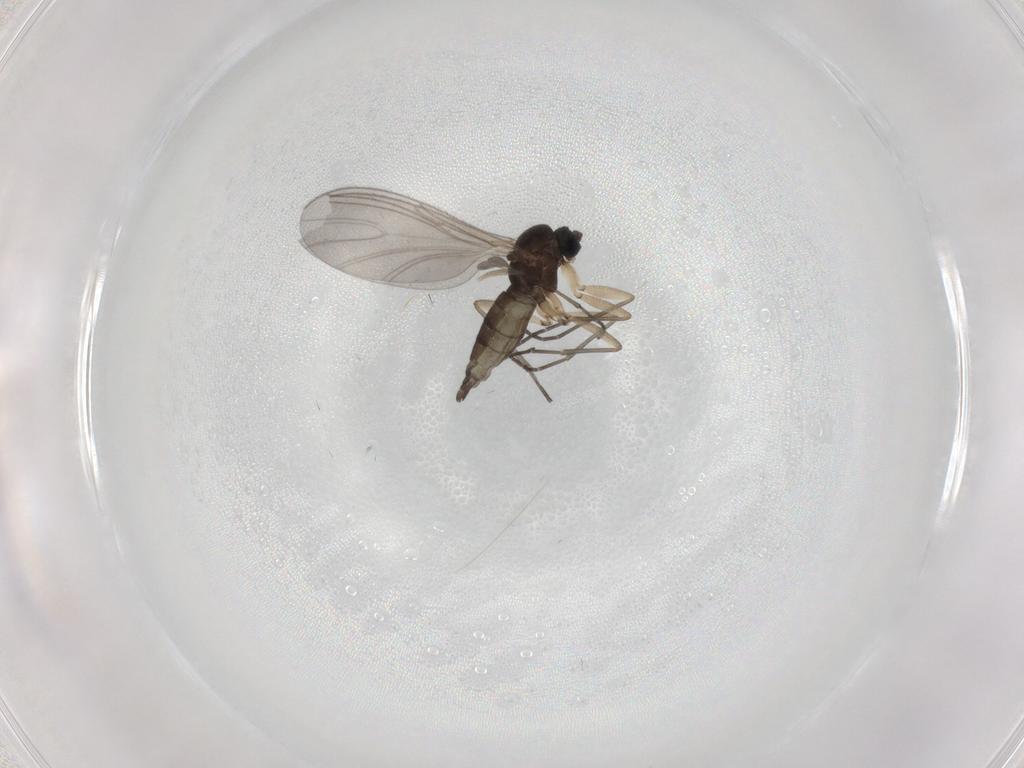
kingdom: Animalia
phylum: Arthropoda
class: Insecta
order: Diptera
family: Sciaridae
